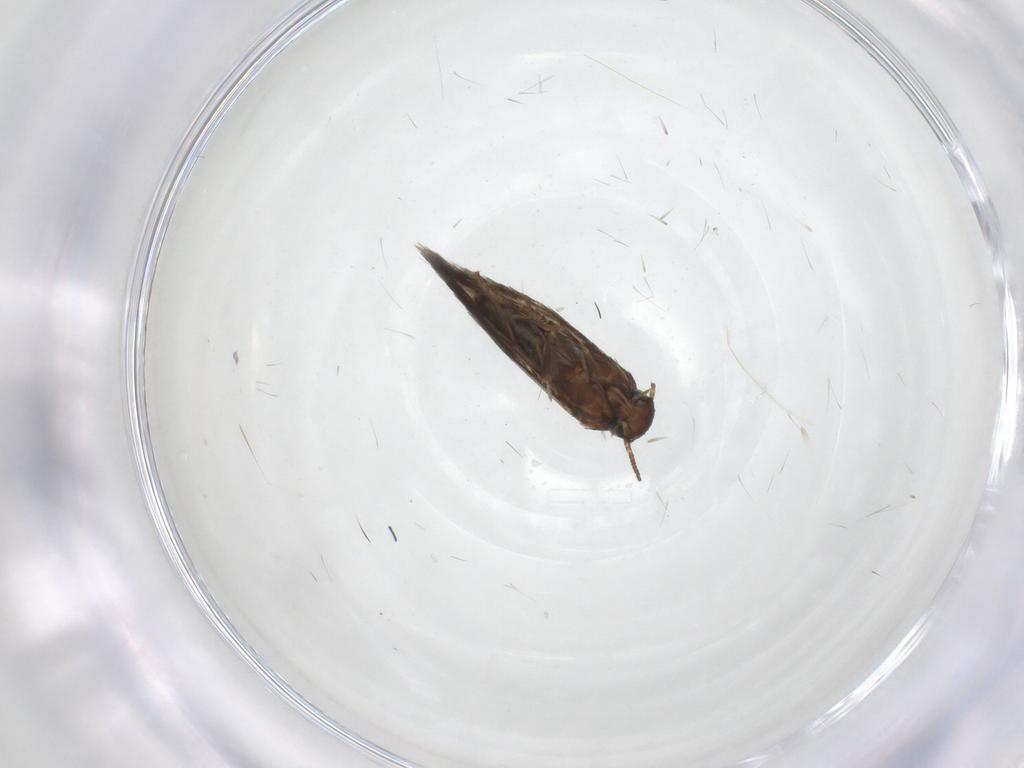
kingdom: Animalia
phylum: Arthropoda
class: Insecta
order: Lepidoptera
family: Heliozelidae
